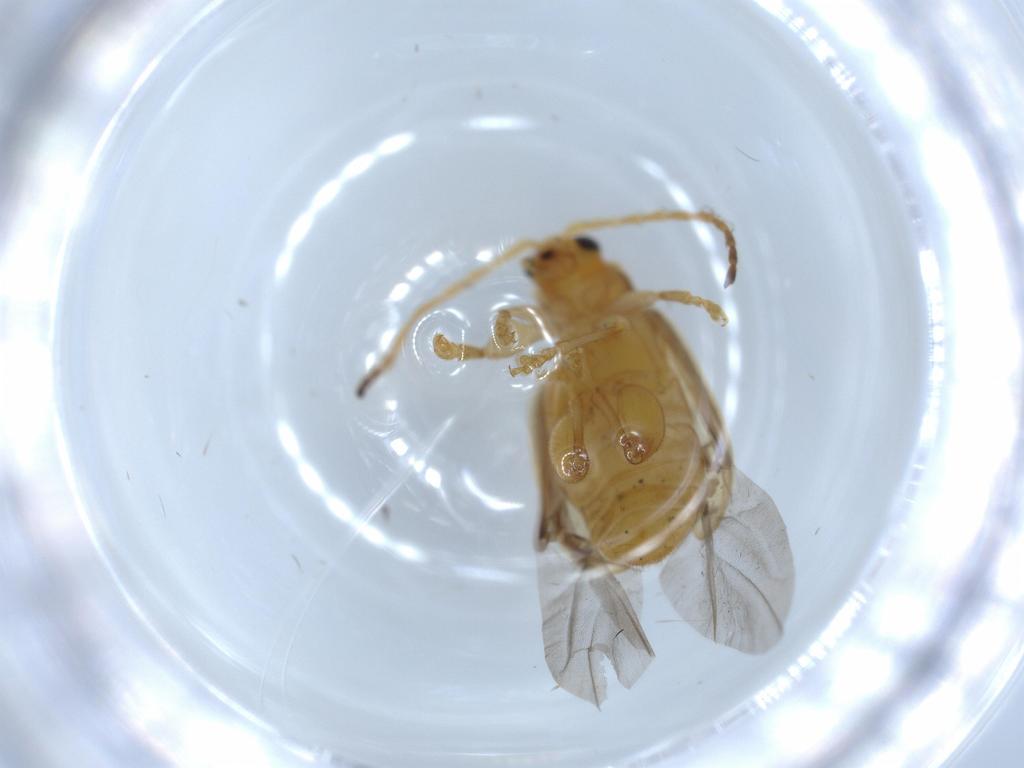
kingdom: Animalia
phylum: Arthropoda
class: Insecta
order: Coleoptera
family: Chrysomelidae
